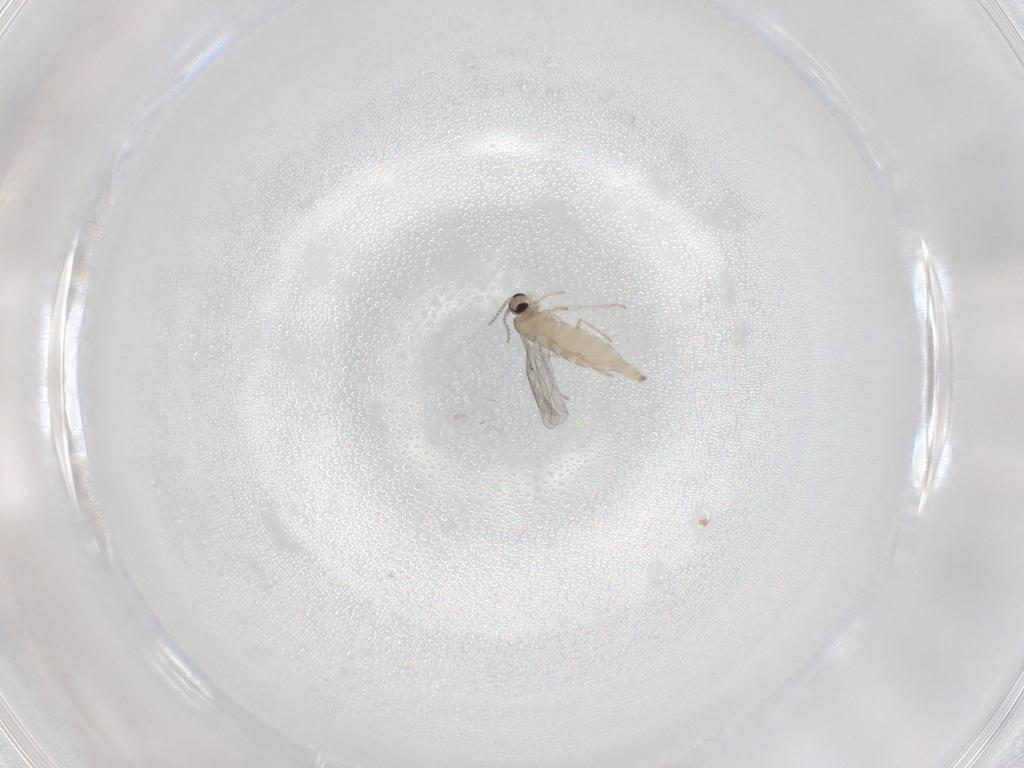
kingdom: Animalia
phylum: Arthropoda
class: Insecta
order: Diptera
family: Cecidomyiidae
